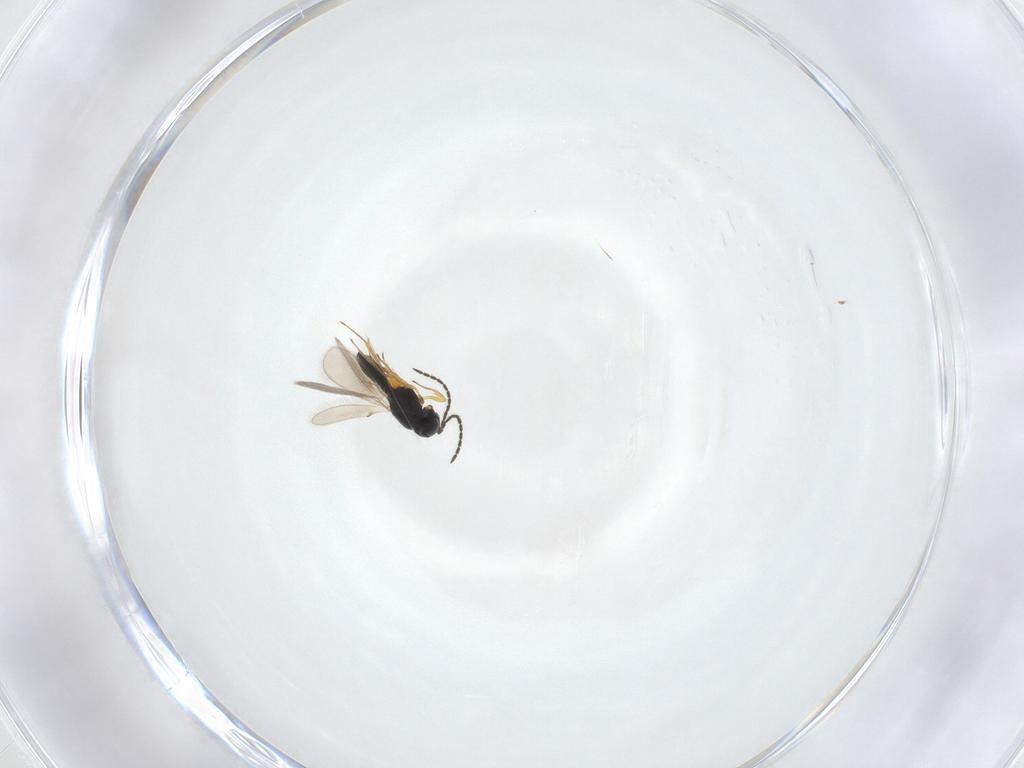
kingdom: Animalia
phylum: Arthropoda
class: Insecta
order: Hymenoptera
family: Scelionidae
